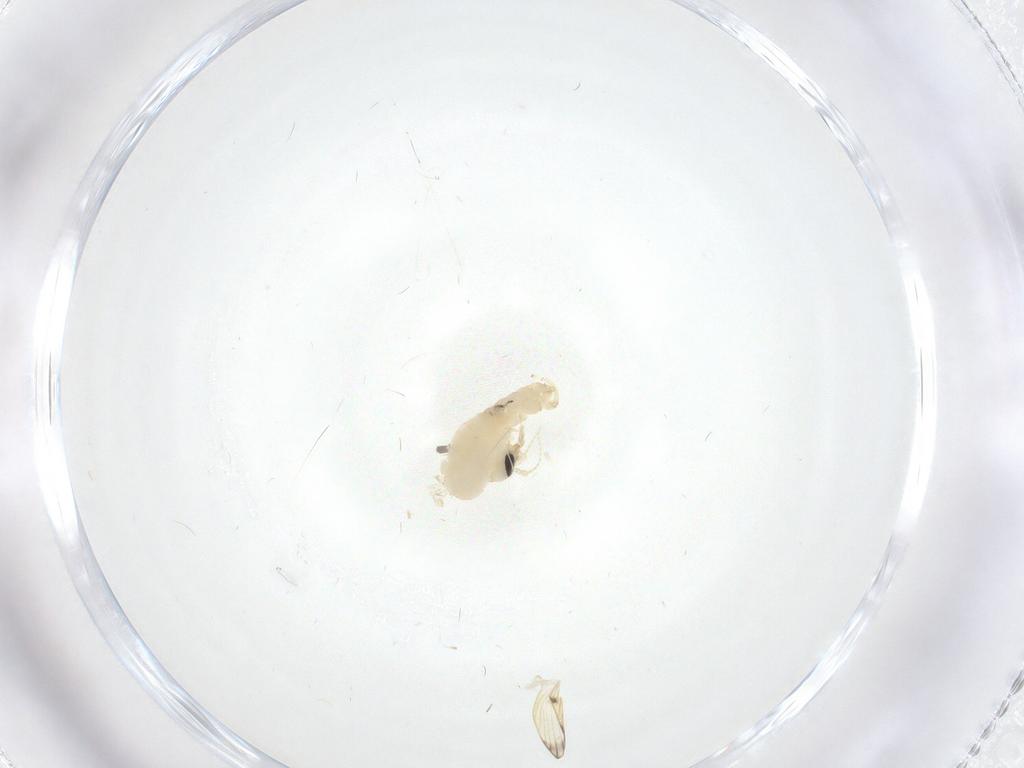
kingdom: Animalia
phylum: Arthropoda
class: Insecta
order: Diptera
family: Psychodidae
